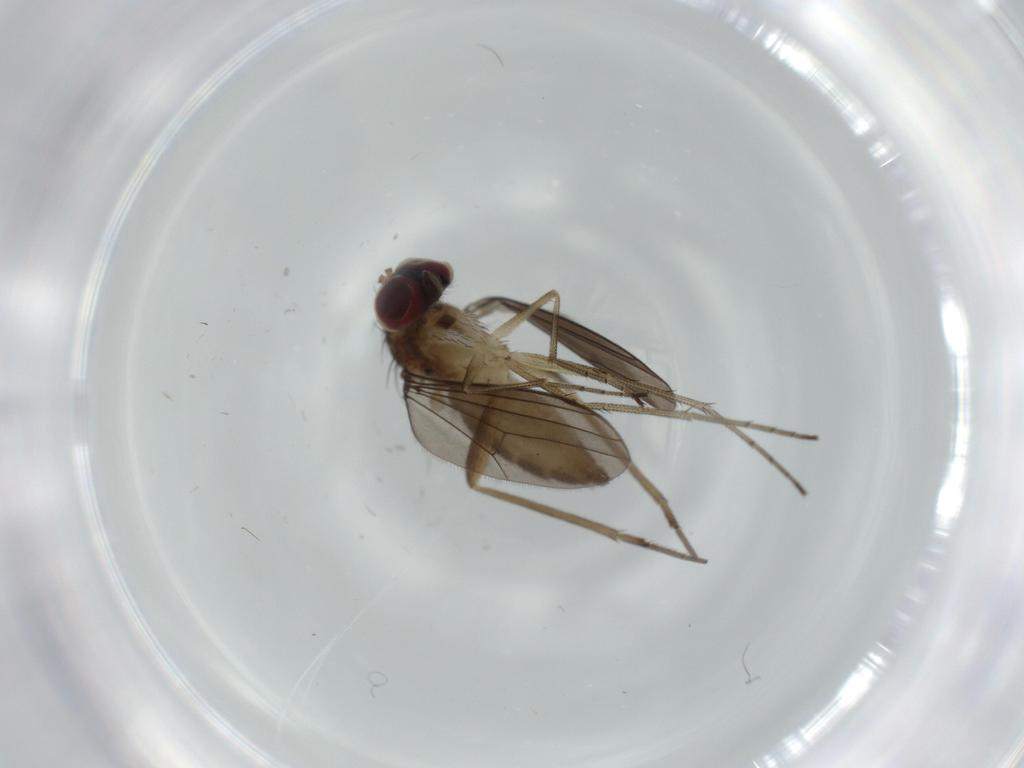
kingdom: Animalia
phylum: Arthropoda
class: Insecta
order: Diptera
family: Dolichopodidae
